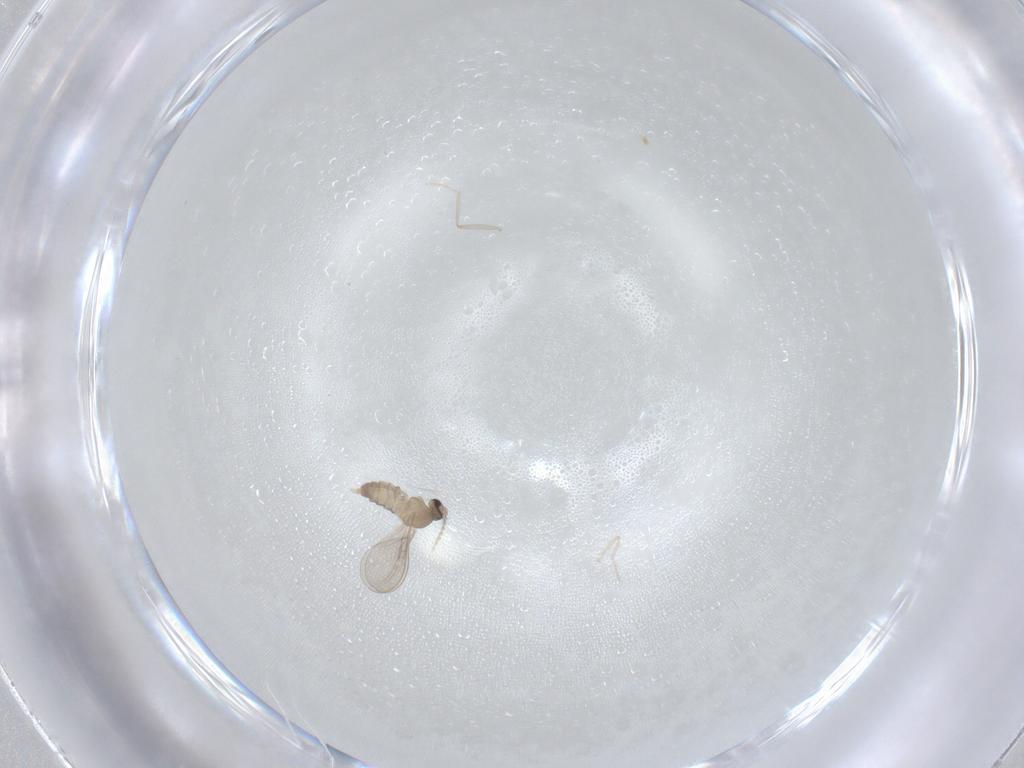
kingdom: Animalia
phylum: Arthropoda
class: Insecta
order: Diptera
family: Cecidomyiidae
